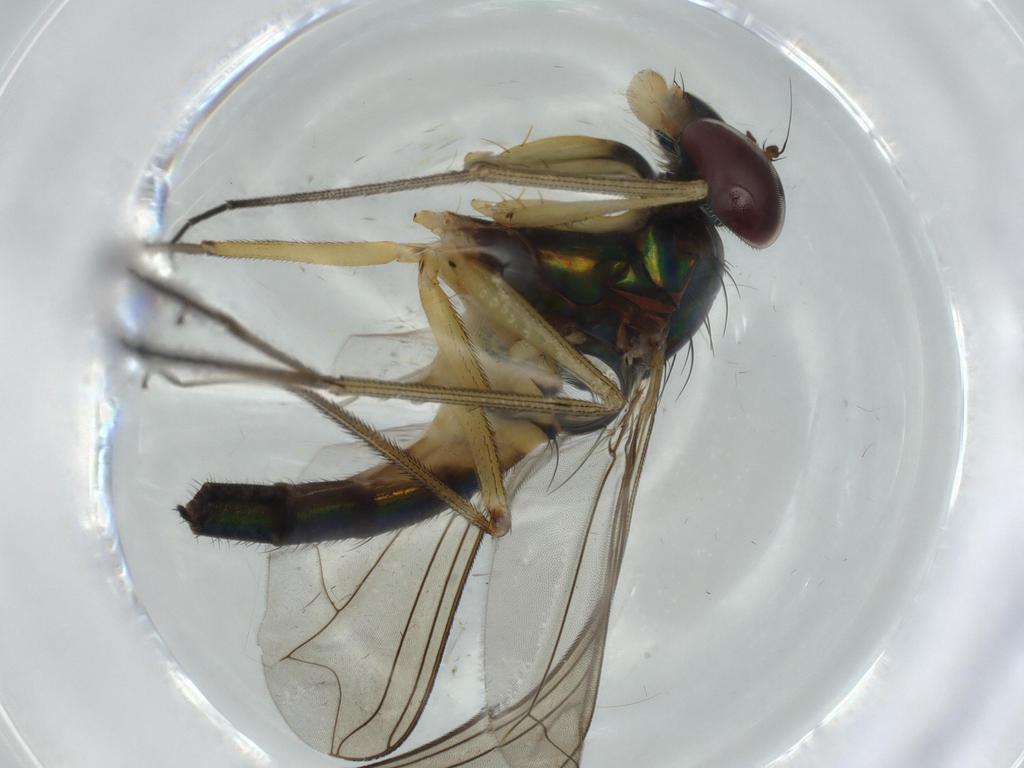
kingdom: Animalia
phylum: Arthropoda
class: Insecta
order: Diptera
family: Dolichopodidae
